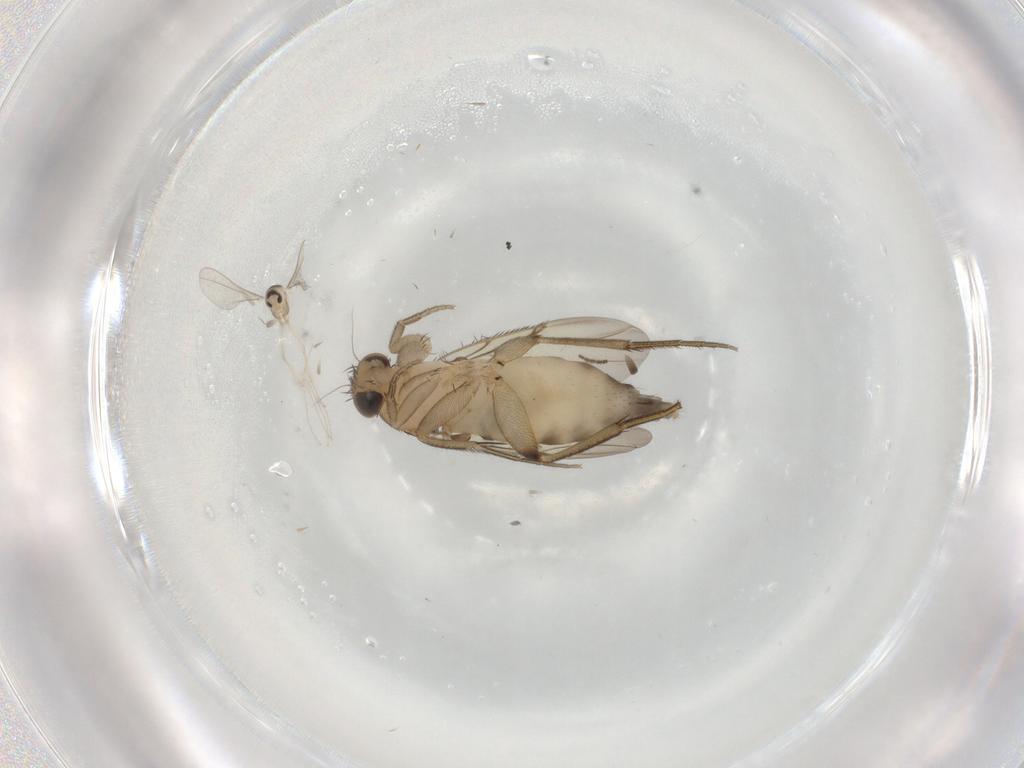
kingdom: Animalia
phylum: Arthropoda
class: Insecta
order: Diptera
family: Phoridae
